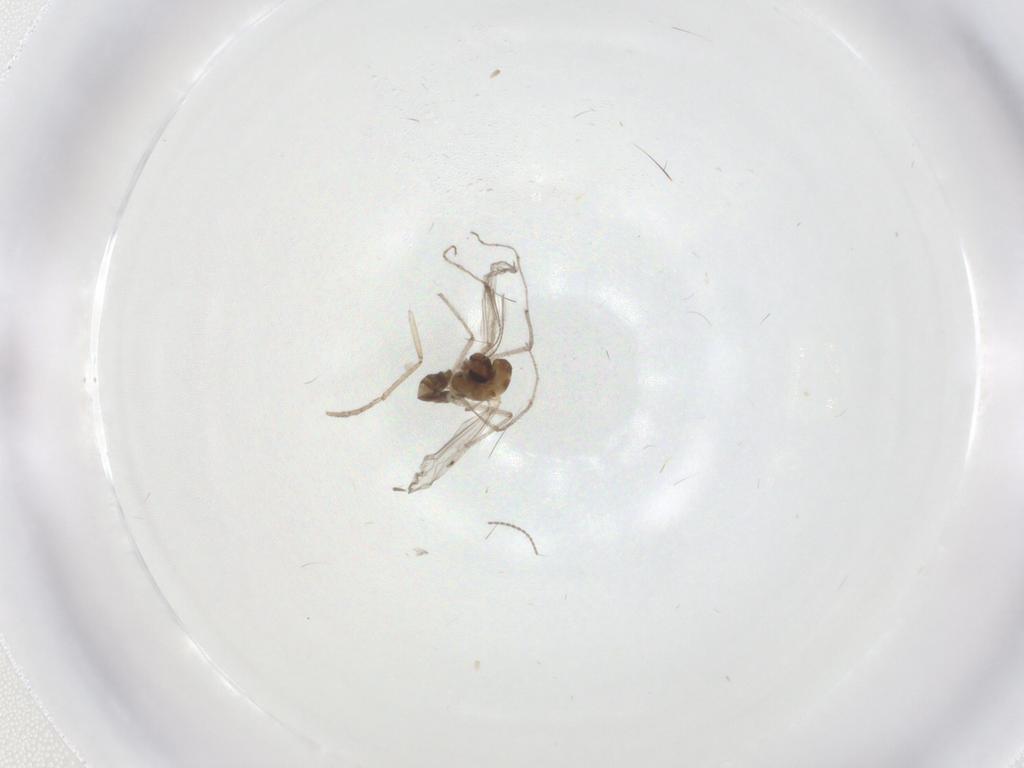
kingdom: Animalia
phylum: Arthropoda
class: Insecta
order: Diptera
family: Chironomidae
